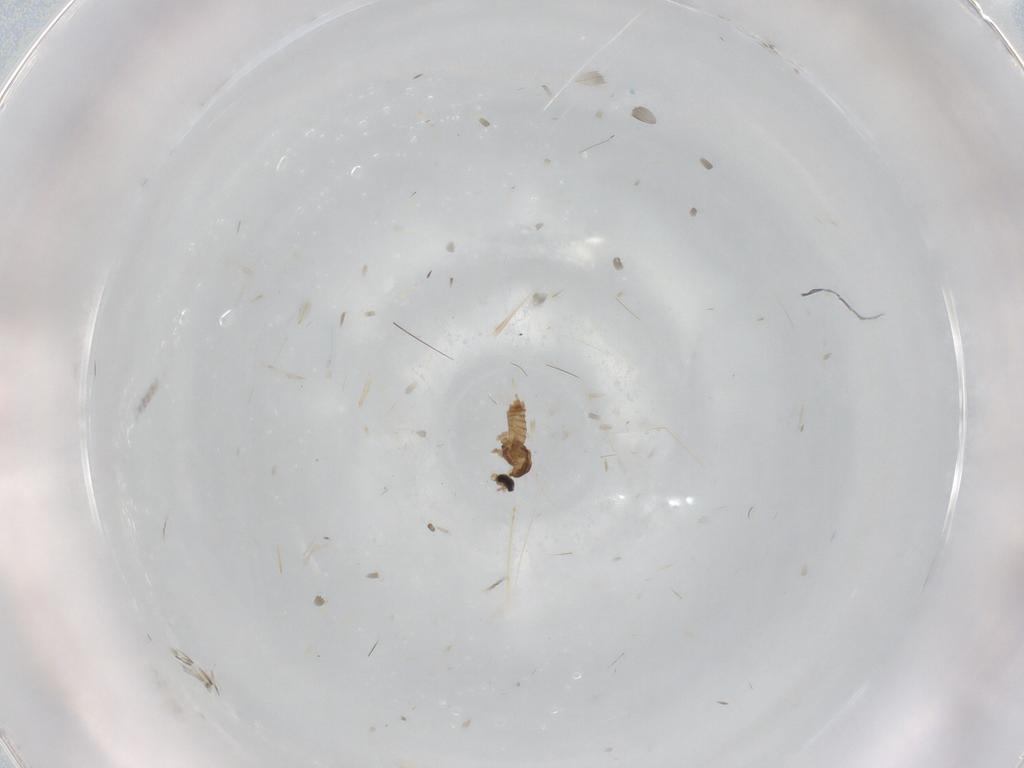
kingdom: Animalia
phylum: Arthropoda
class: Insecta
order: Diptera
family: Cecidomyiidae
